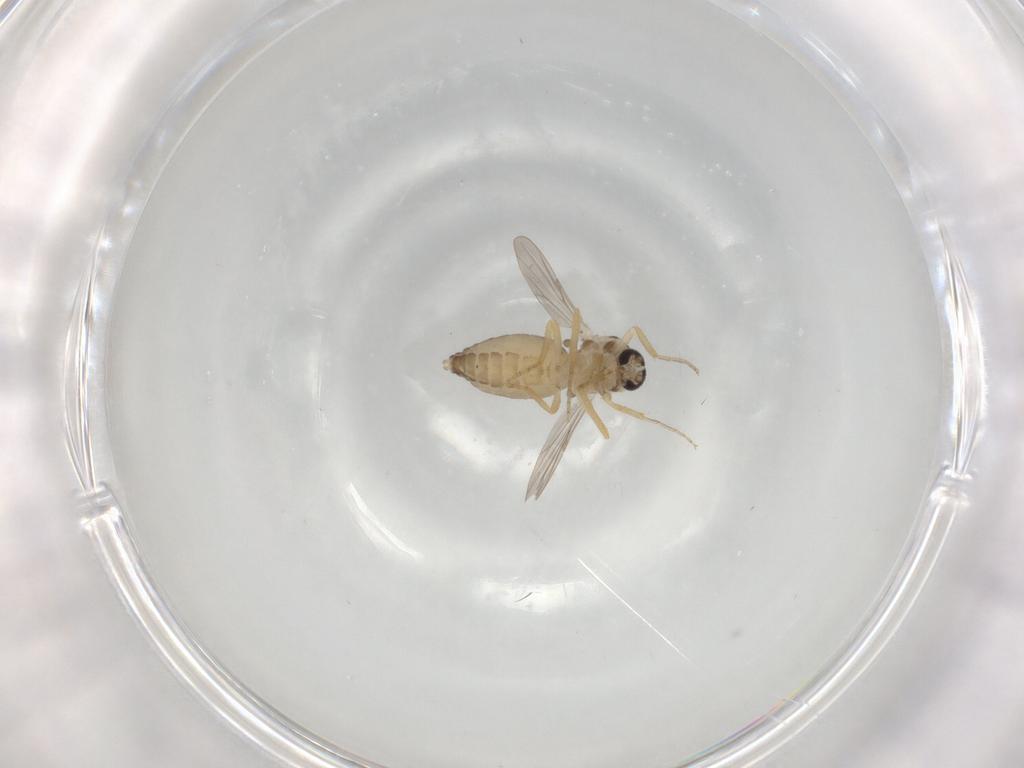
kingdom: Animalia
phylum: Arthropoda
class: Insecta
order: Diptera
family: Ceratopogonidae
